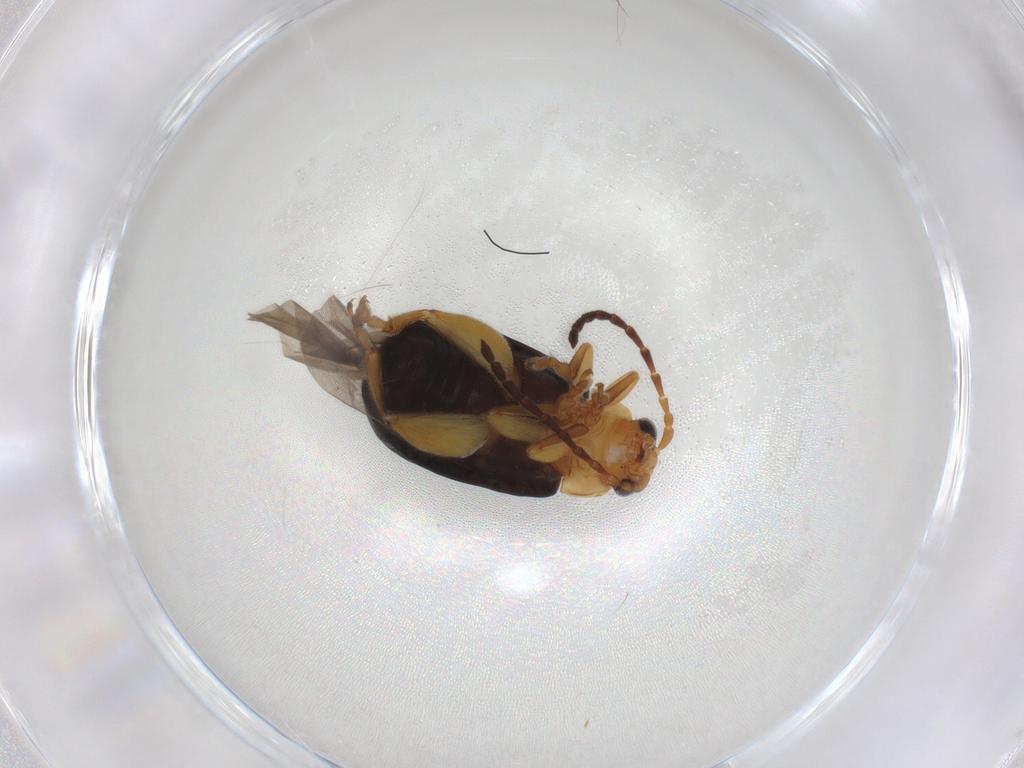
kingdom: Animalia
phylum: Arthropoda
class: Insecta
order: Coleoptera
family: Chrysomelidae
